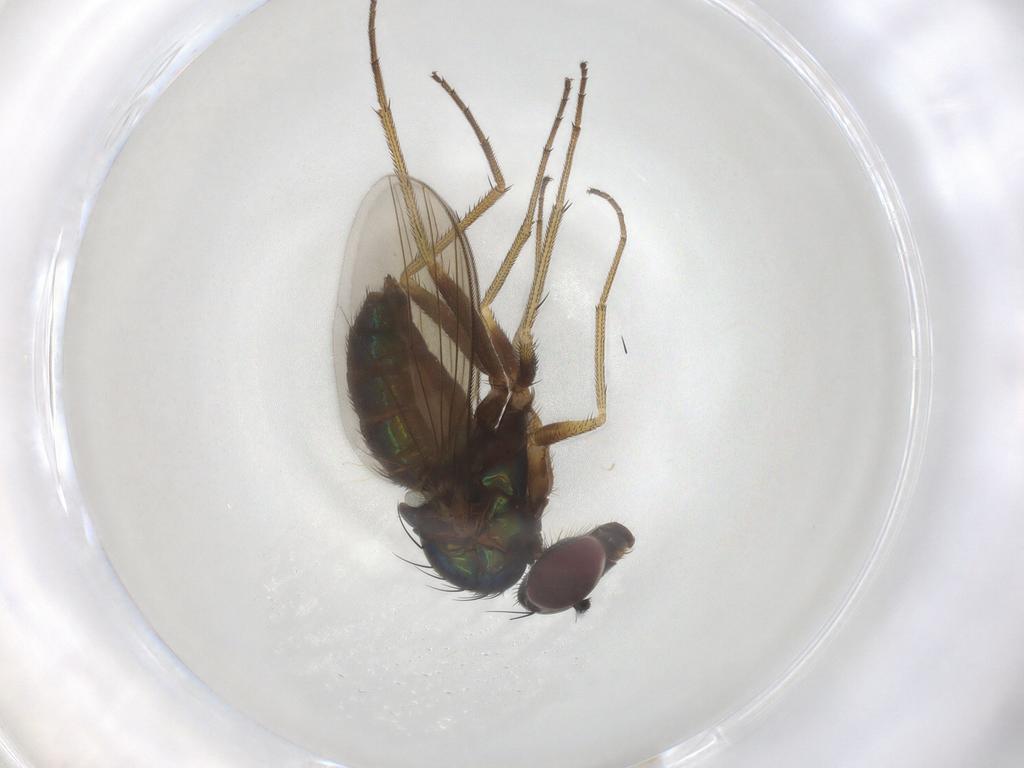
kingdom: Animalia
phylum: Arthropoda
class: Insecta
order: Diptera
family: Dolichopodidae
